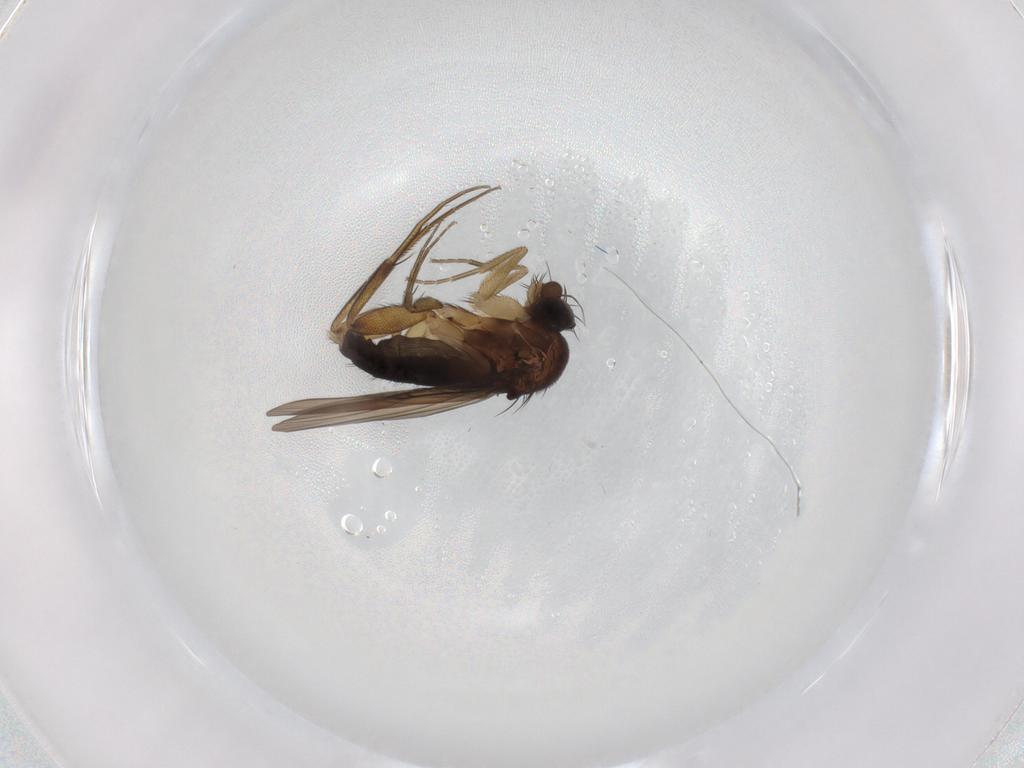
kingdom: Animalia
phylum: Arthropoda
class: Insecta
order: Diptera
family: Phoridae
